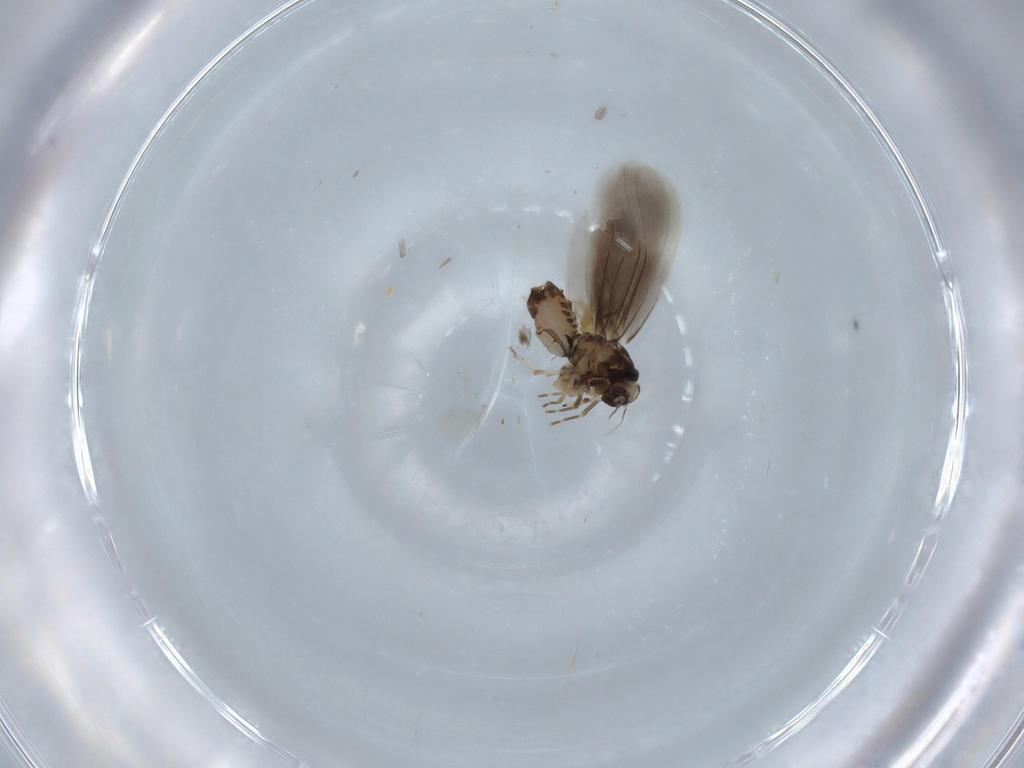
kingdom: Animalia
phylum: Arthropoda
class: Insecta
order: Hemiptera
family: Aleyrodidae
